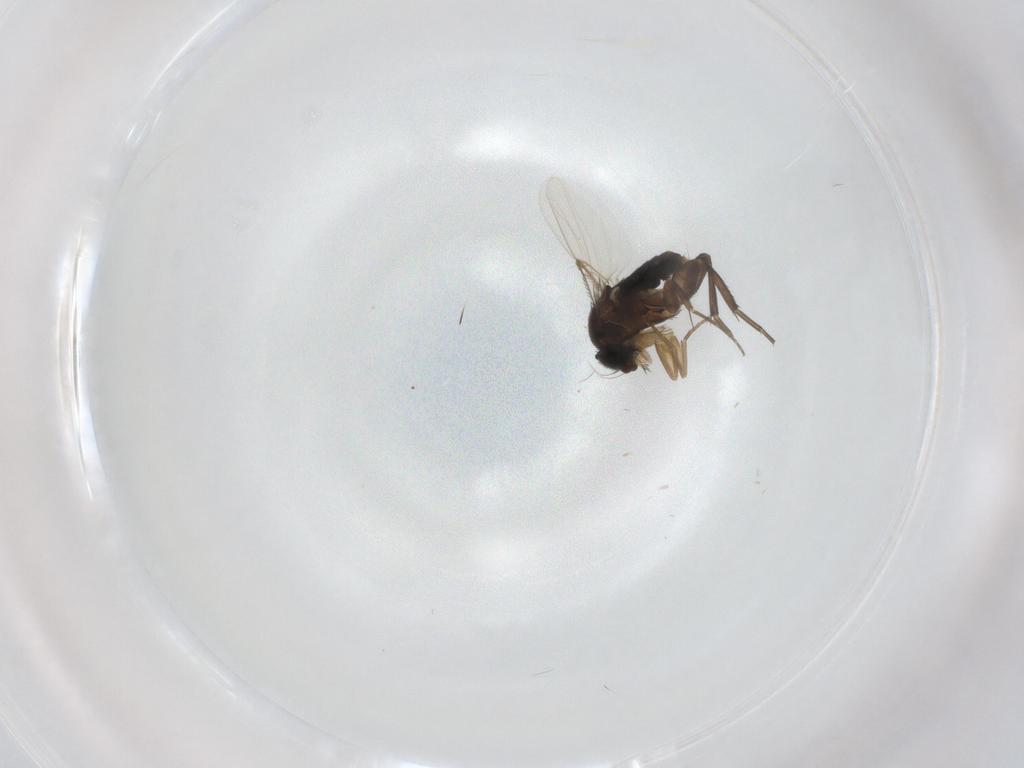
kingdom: Animalia
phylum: Arthropoda
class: Insecta
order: Diptera
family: Phoridae
